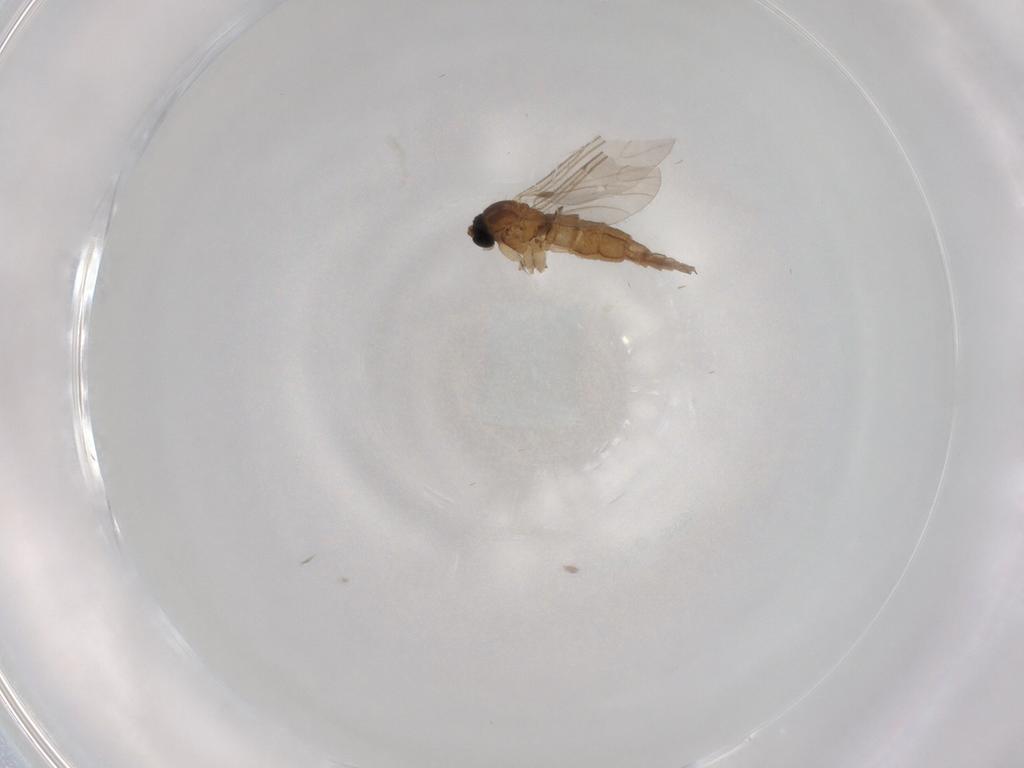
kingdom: Animalia
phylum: Arthropoda
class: Insecta
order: Diptera
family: Sciaridae
